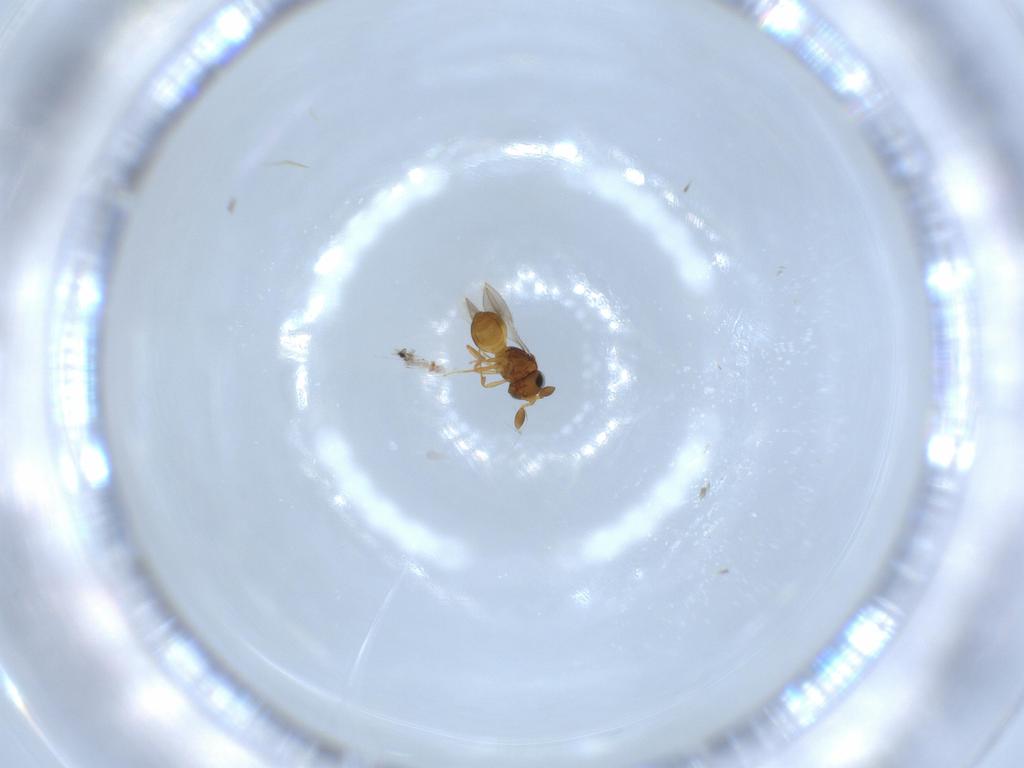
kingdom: Animalia
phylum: Arthropoda
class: Insecta
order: Hymenoptera
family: Scelionidae
